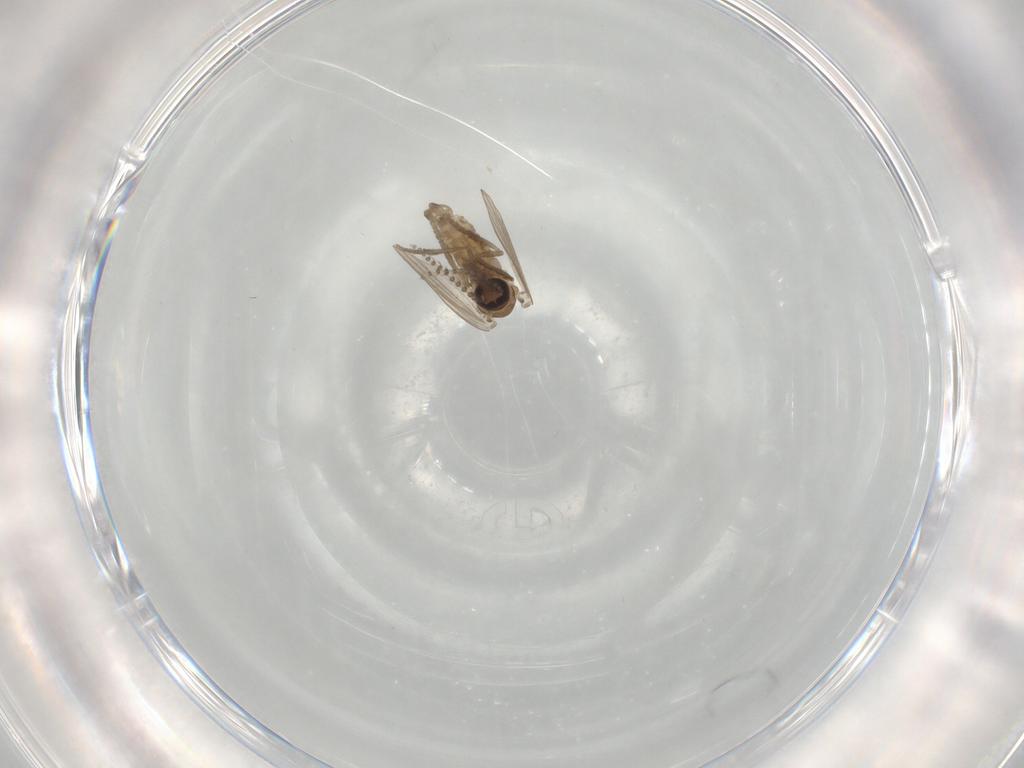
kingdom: Animalia
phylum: Arthropoda
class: Insecta
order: Diptera
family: Psychodidae
